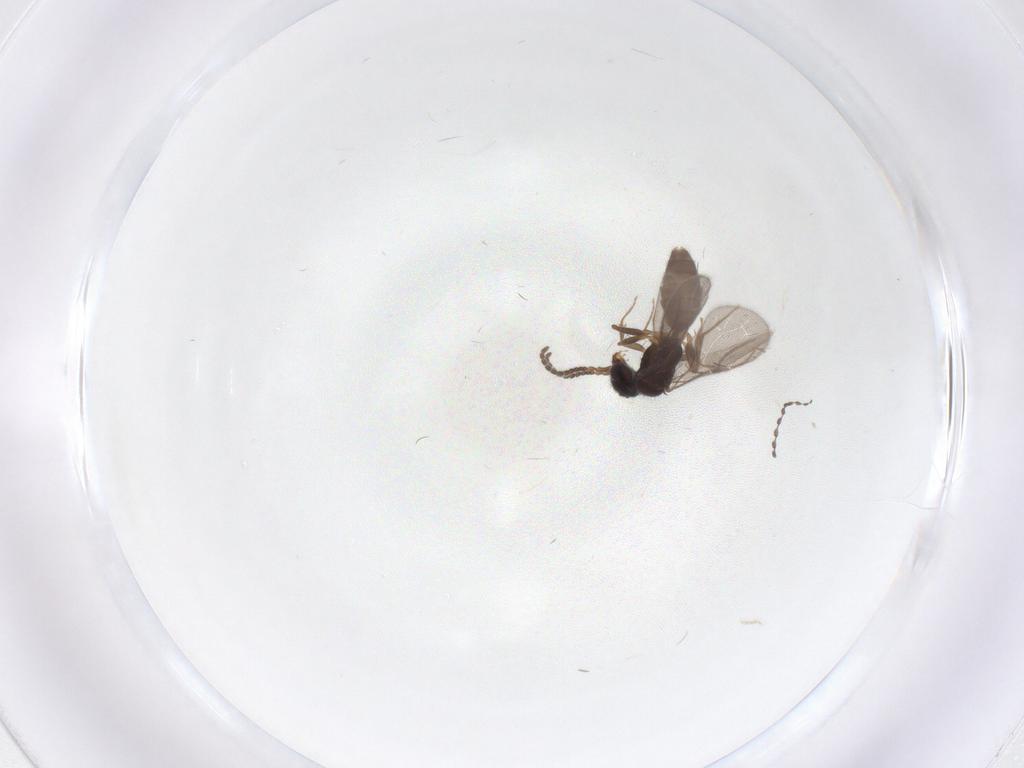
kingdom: Animalia
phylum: Arthropoda
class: Insecta
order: Hymenoptera
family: Bethylidae
